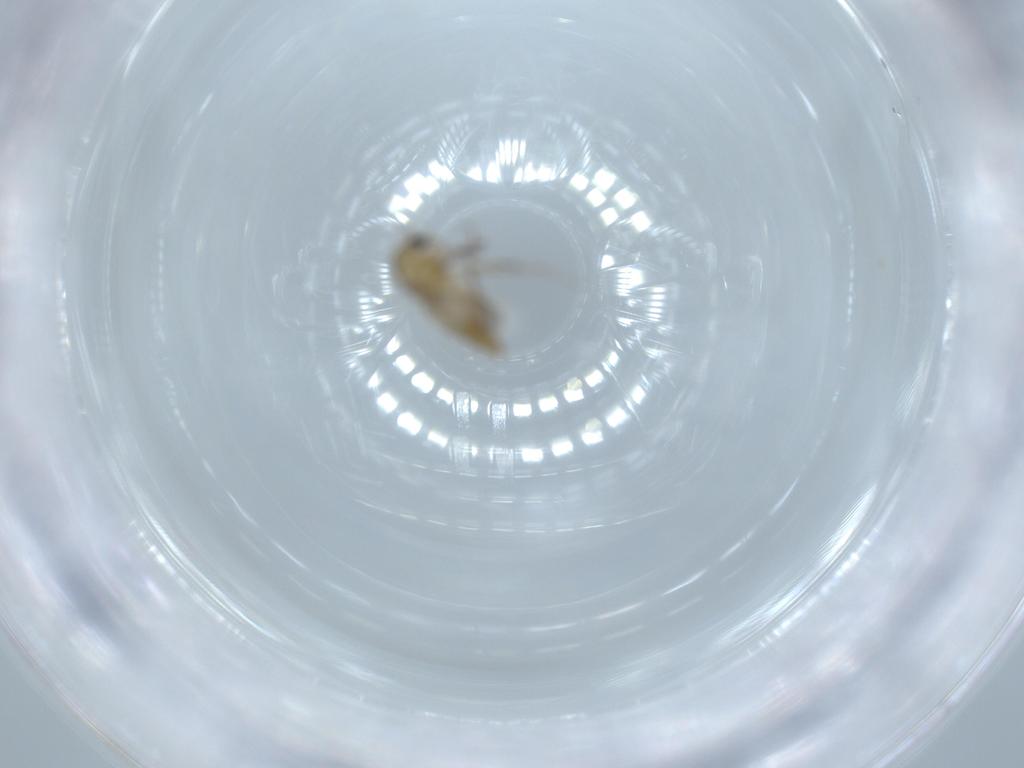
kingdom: Animalia
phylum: Arthropoda
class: Insecta
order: Diptera
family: Chironomidae
